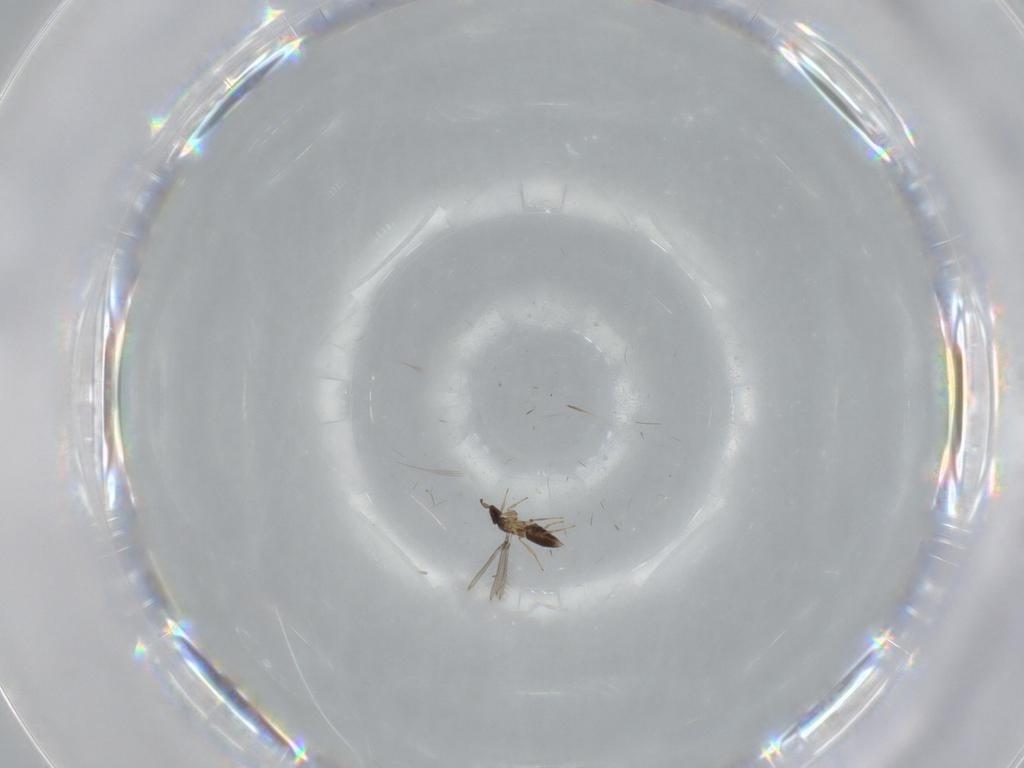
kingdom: Animalia
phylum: Arthropoda
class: Insecta
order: Hymenoptera
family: Mymaridae
